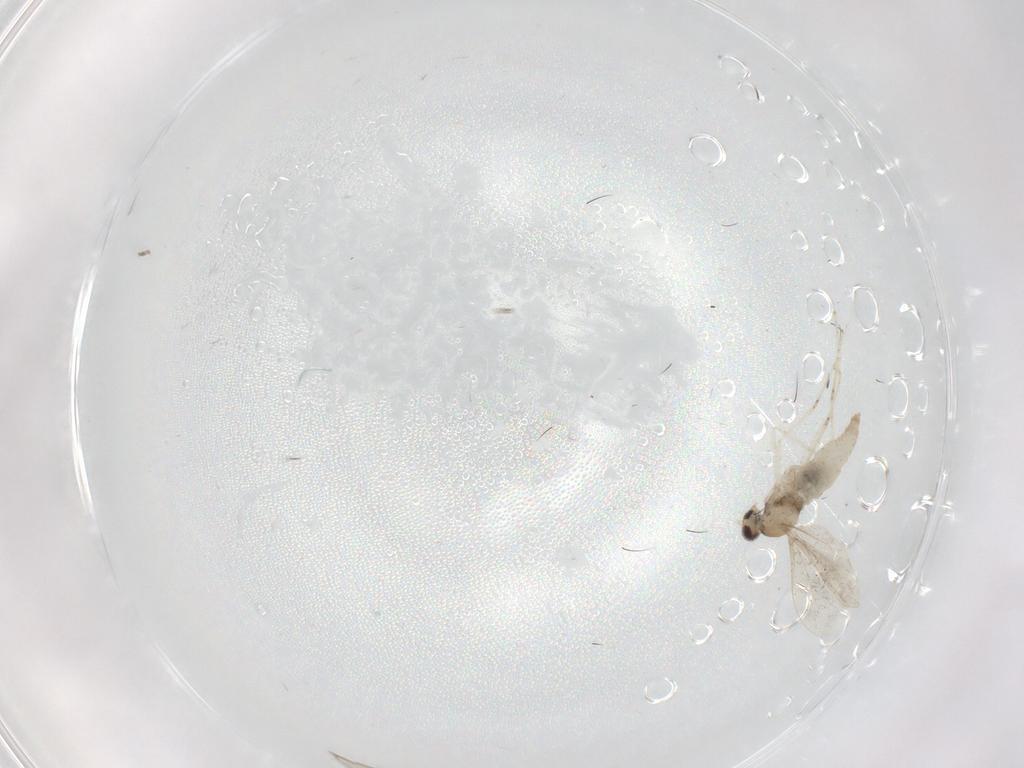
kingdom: Animalia
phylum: Arthropoda
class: Insecta
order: Diptera
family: Cecidomyiidae
